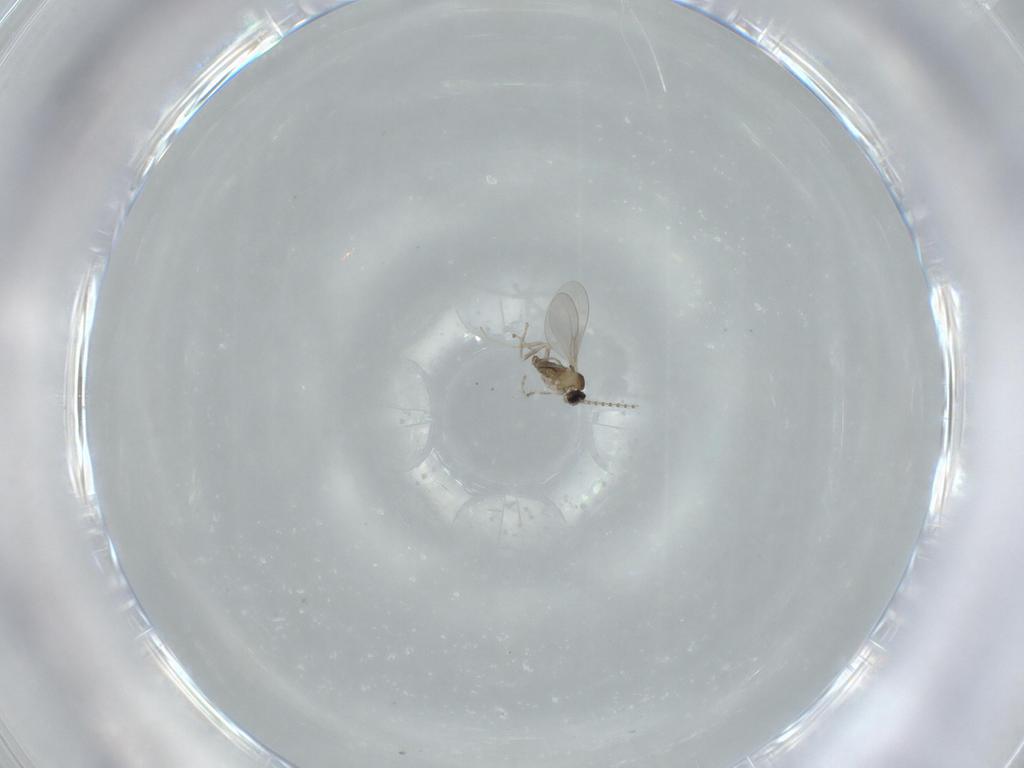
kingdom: Animalia
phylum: Arthropoda
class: Insecta
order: Diptera
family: Cecidomyiidae
